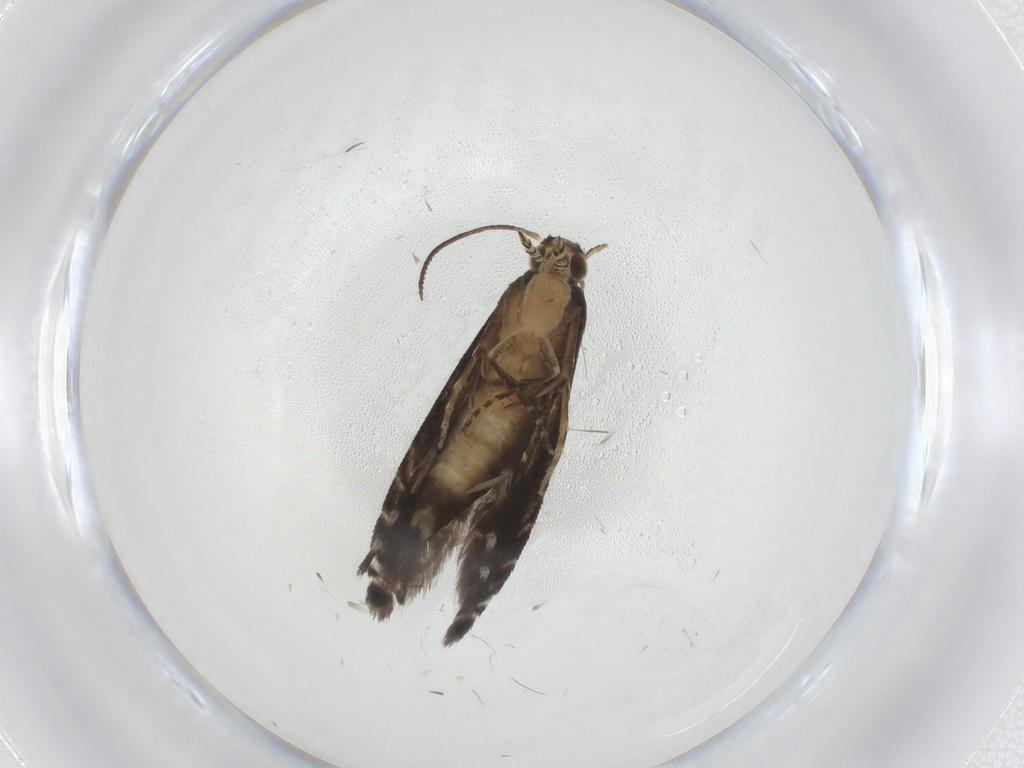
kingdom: Animalia
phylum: Arthropoda
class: Insecta
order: Lepidoptera
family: Glyphipterigidae
